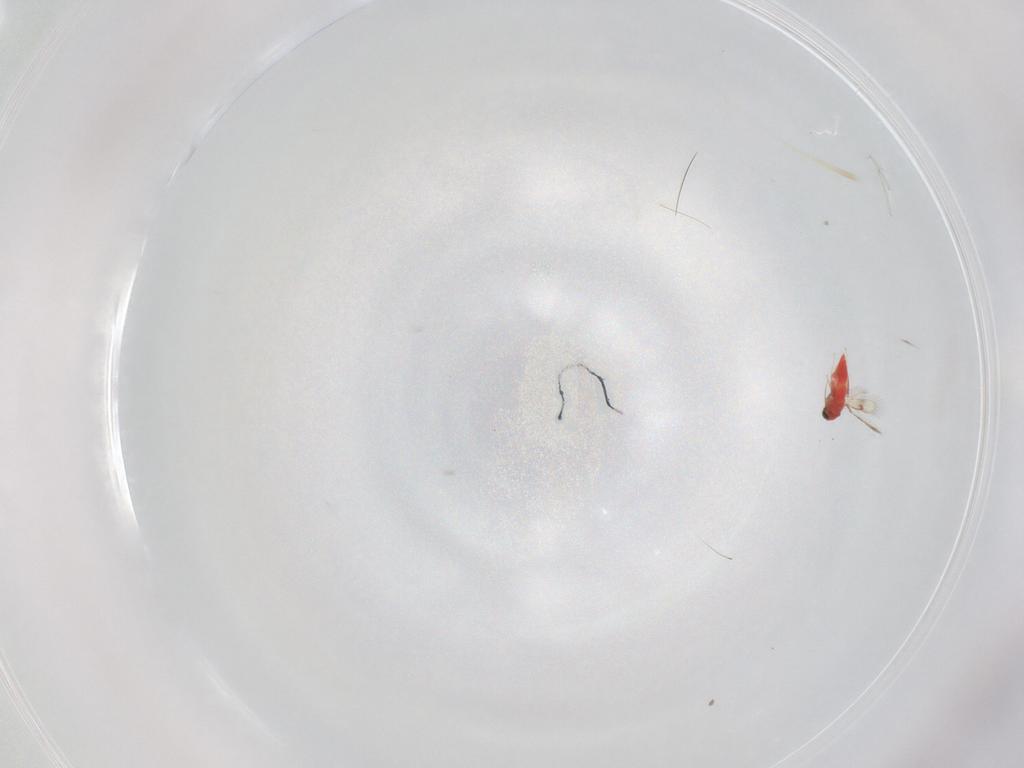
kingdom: Animalia
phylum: Arthropoda
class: Insecta
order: Hymenoptera
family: Trichogrammatidae
